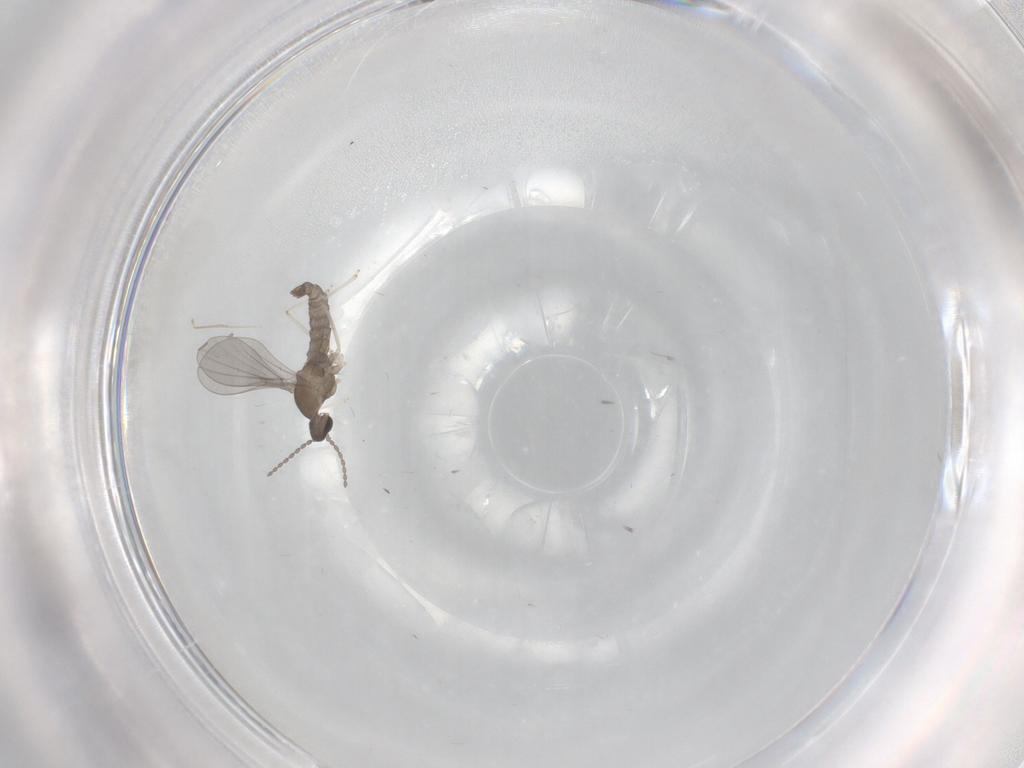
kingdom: Animalia
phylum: Arthropoda
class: Insecta
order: Diptera
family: Cecidomyiidae
